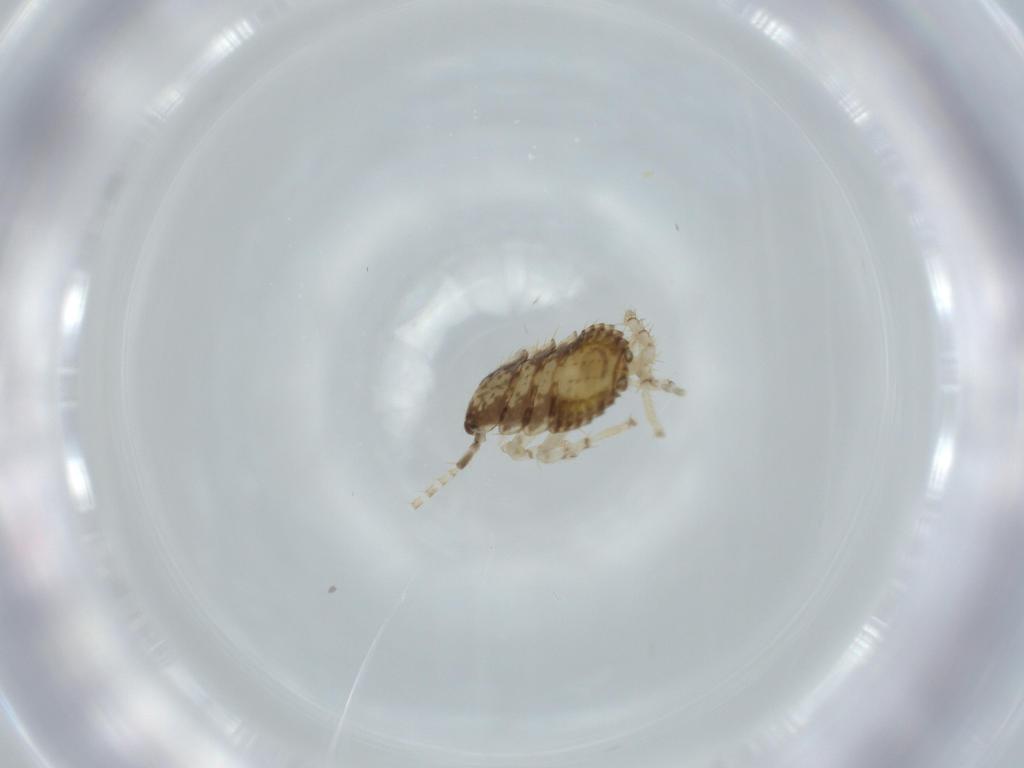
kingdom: Animalia
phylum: Arthropoda
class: Insecta
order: Blattodea
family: Ectobiidae
